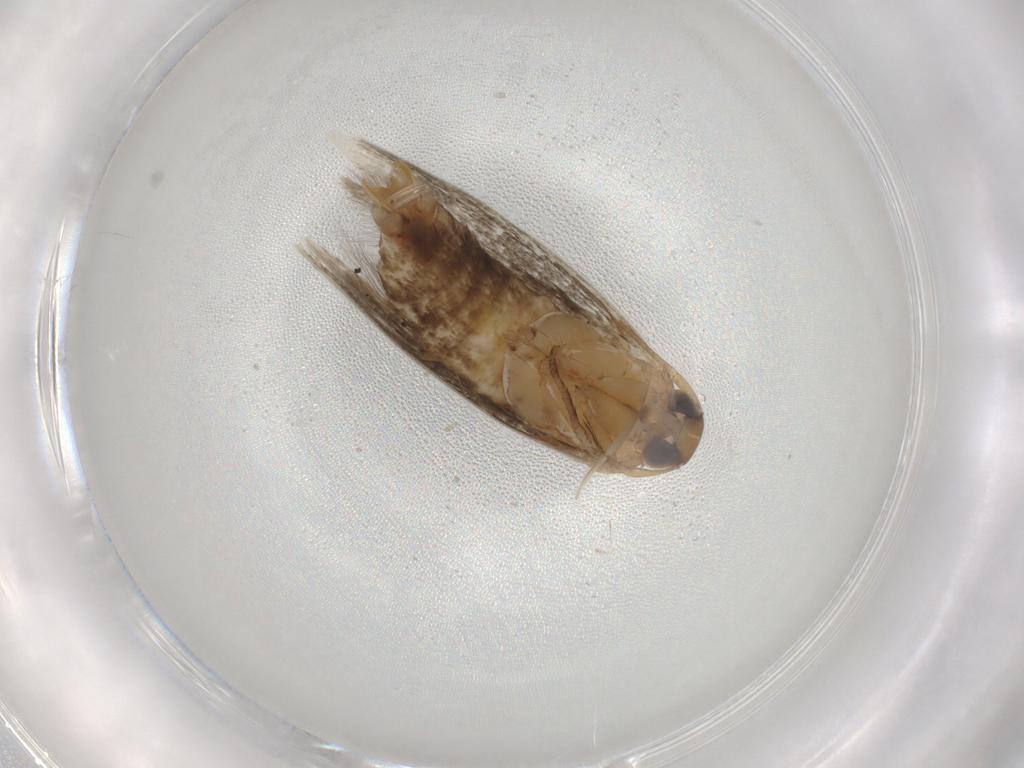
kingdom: Animalia
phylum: Arthropoda
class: Insecta
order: Lepidoptera
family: Cosmopterigidae
